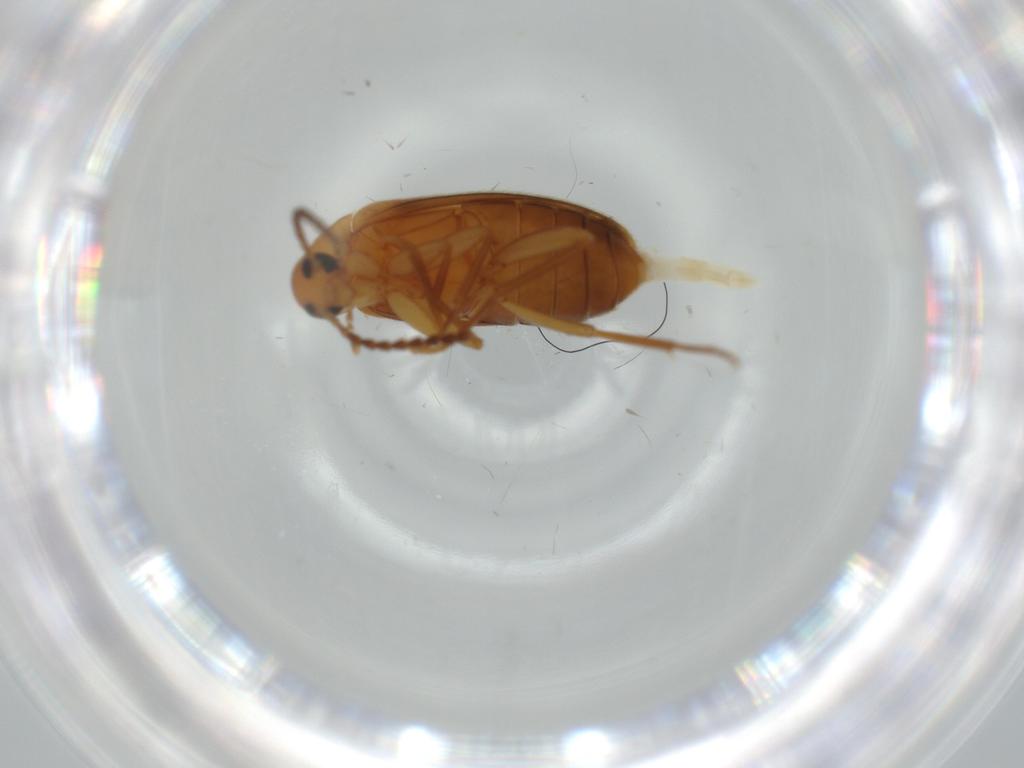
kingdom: Animalia
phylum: Arthropoda
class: Insecta
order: Coleoptera
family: Scraptiidae
